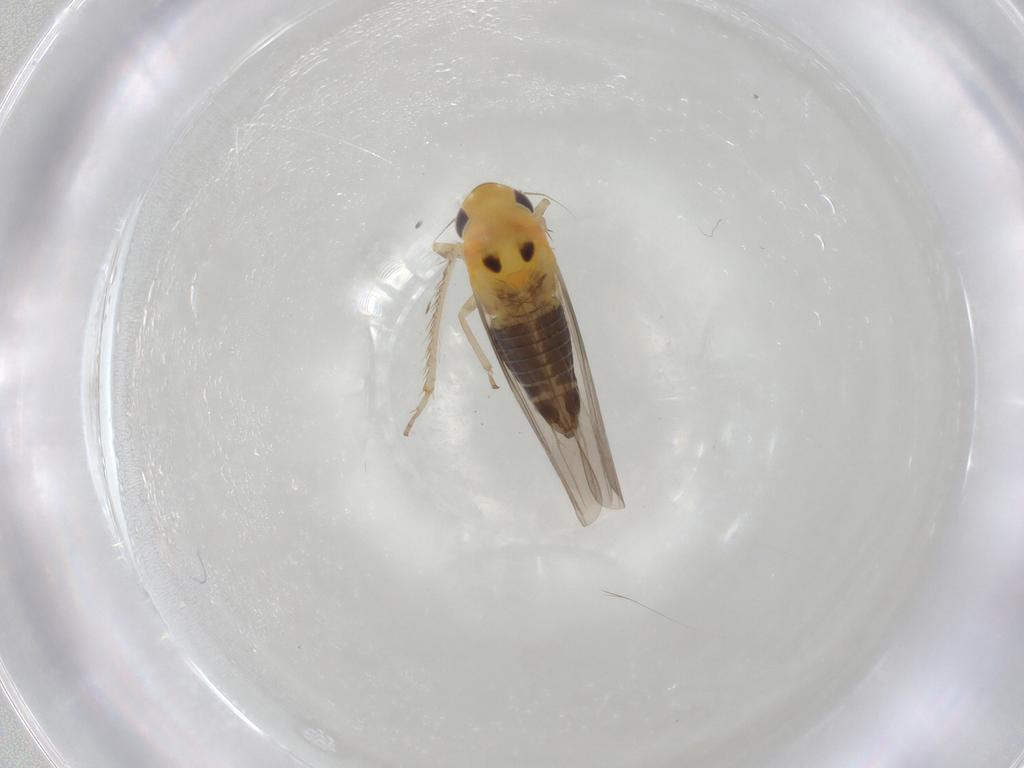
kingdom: Animalia
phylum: Arthropoda
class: Insecta
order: Hemiptera
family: Cicadellidae
